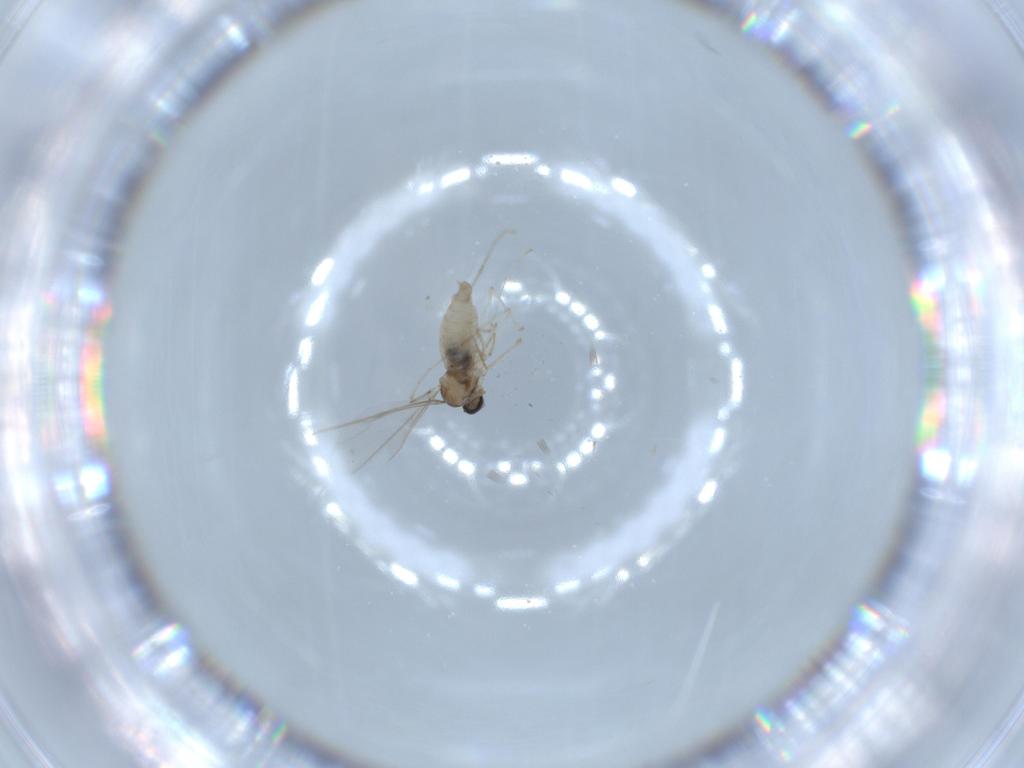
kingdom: Animalia
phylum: Arthropoda
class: Insecta
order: Diptera
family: Cecidomyiidae
